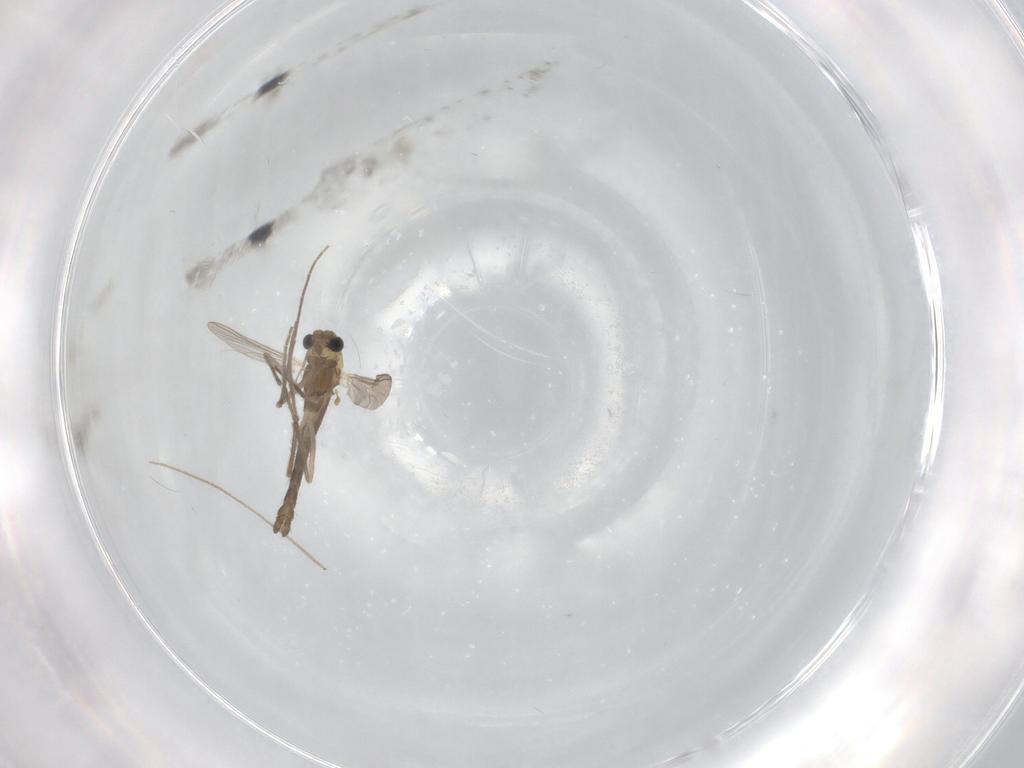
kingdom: Animalia
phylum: Arthropoda
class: Insecta
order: Diptera
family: Chironomidae
